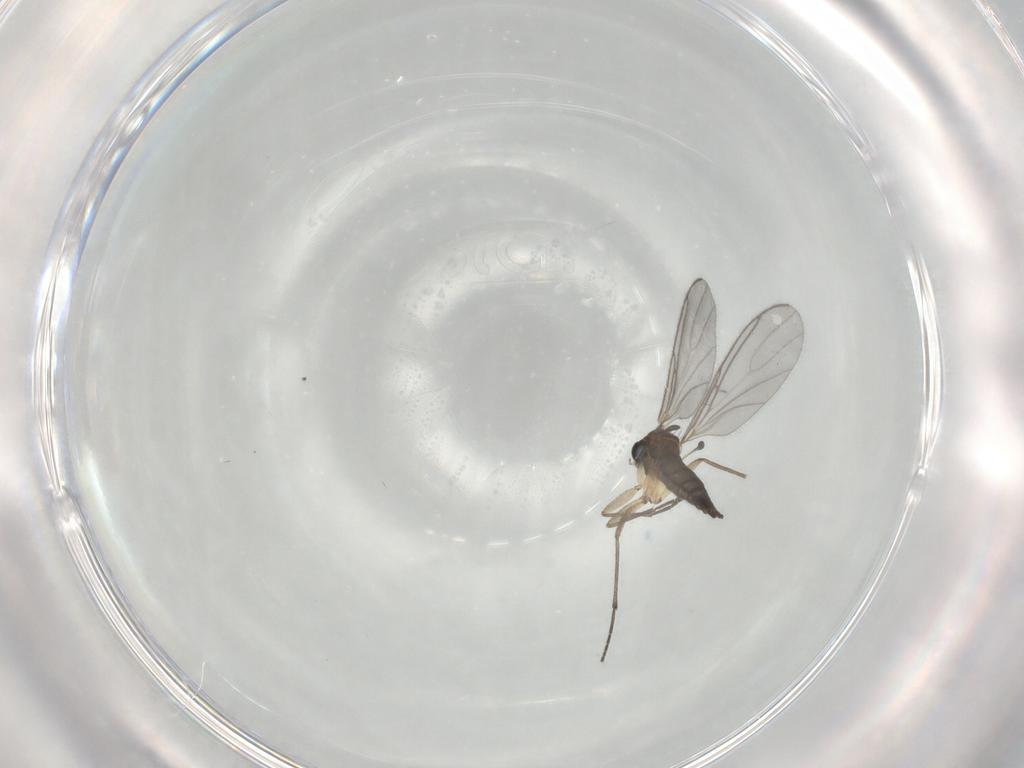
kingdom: Animalia
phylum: Arthropoda
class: Insecta
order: Diptera
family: Sciaridae
